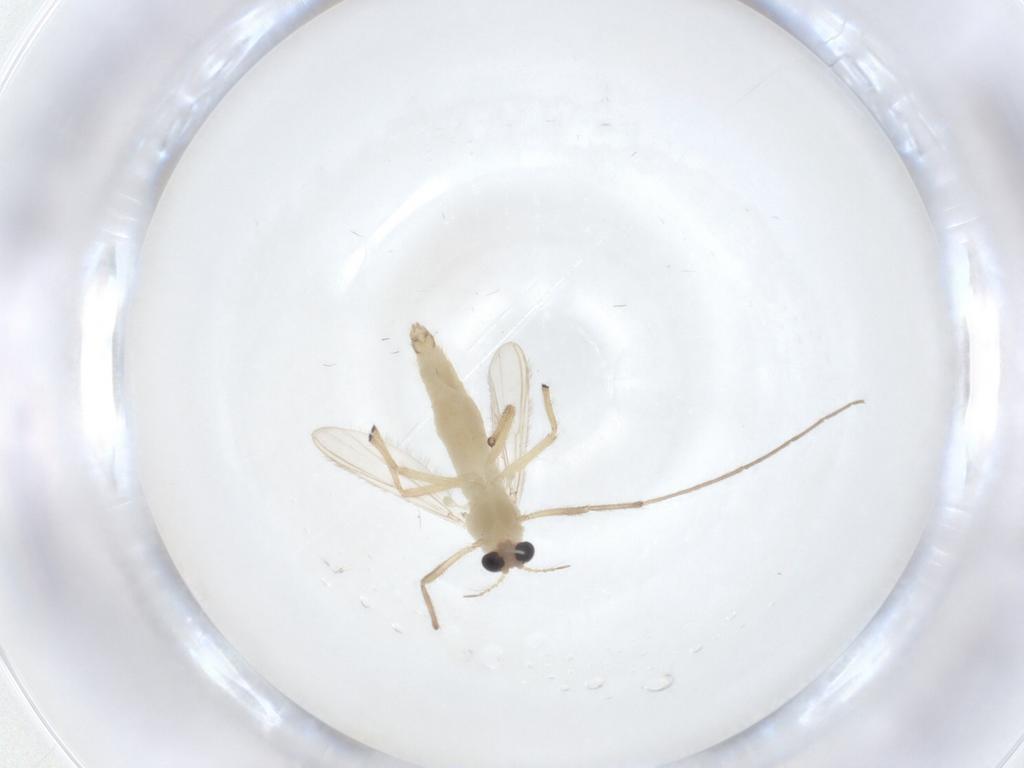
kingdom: Animalia
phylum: Arthropoda
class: Insecta
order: Diptera
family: Chironomidae
